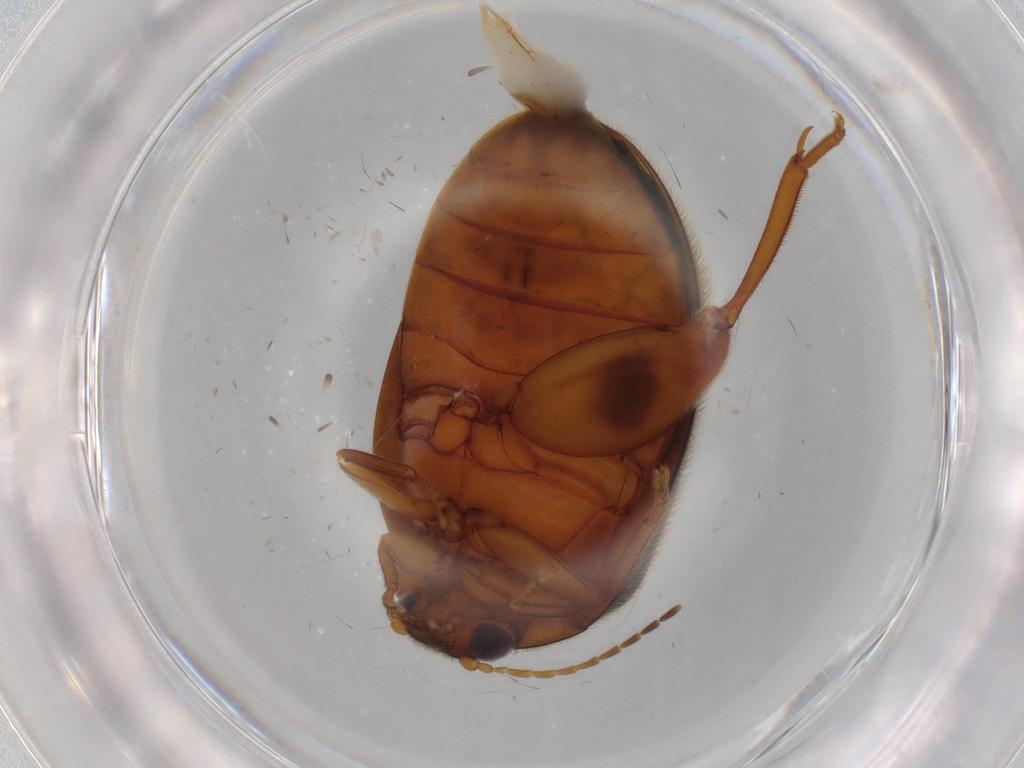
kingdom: Animalia
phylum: Arthropoda
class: Insecta
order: Coleoptera
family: Scirtidae
